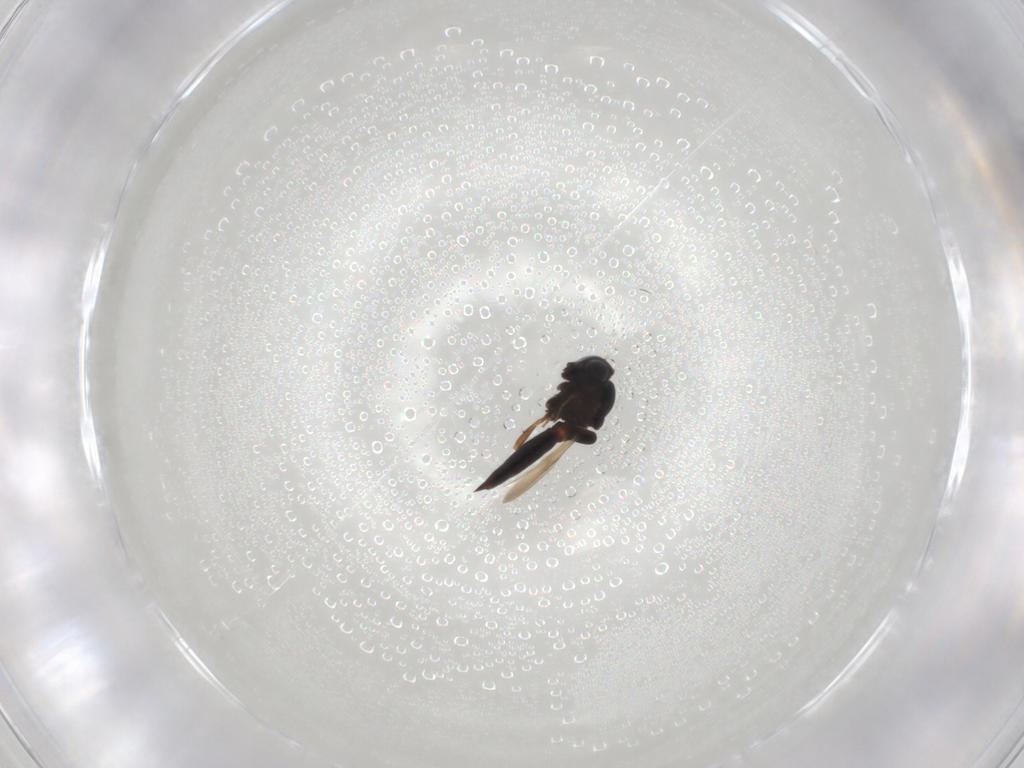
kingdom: Animalia
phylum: Arthropoda
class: Insecta
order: Hymenoptera
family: Scelionidae
